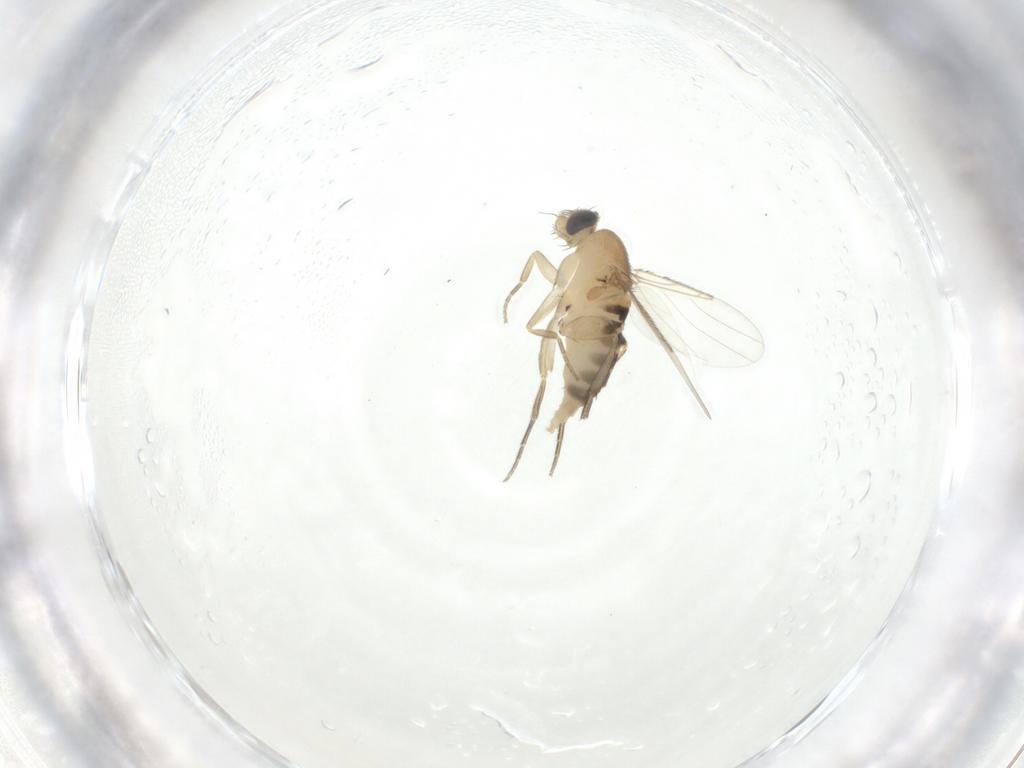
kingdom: Animalia
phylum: Arthropoda
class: Insecta
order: Diptera
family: Phoridae
